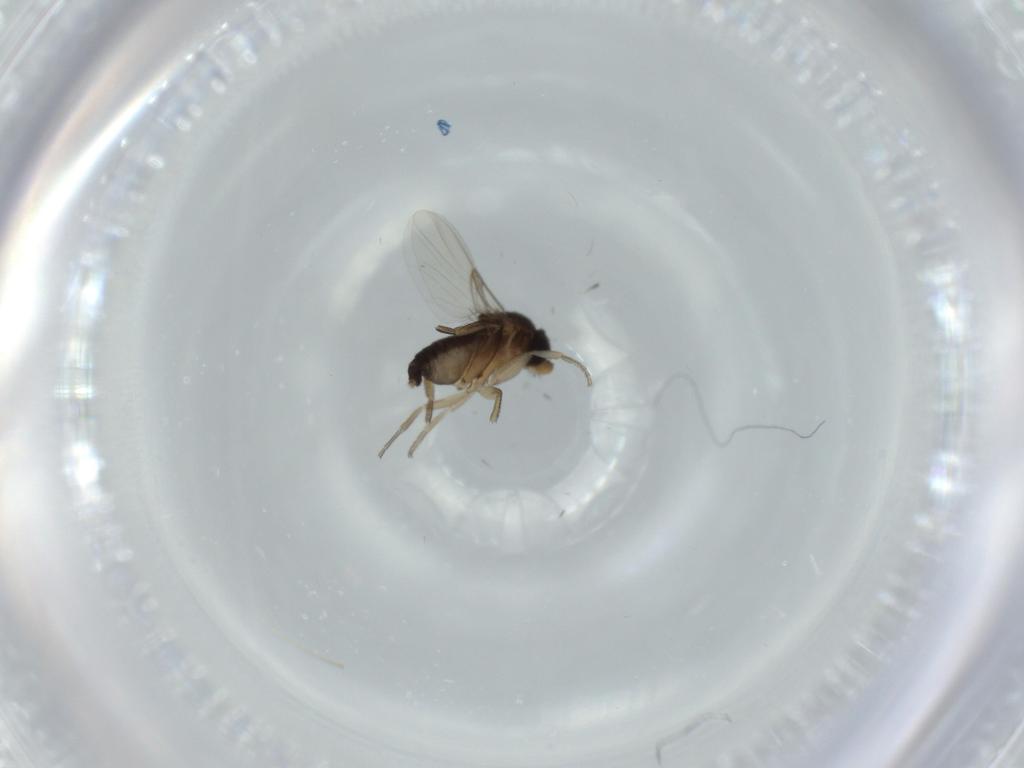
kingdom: Animalia
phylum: Arthropoda
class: Insecta
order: Diptera
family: Phoridae
